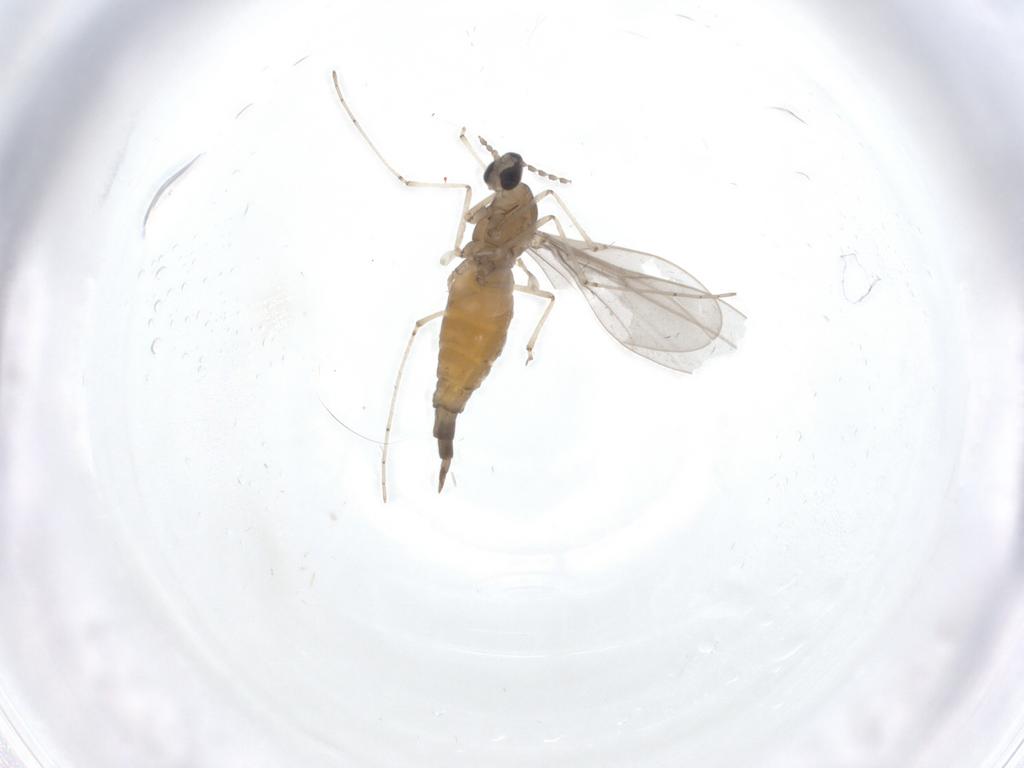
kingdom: Animalia
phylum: Arthropoda
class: Insecta
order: Diptera
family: Cecidomyiidae
